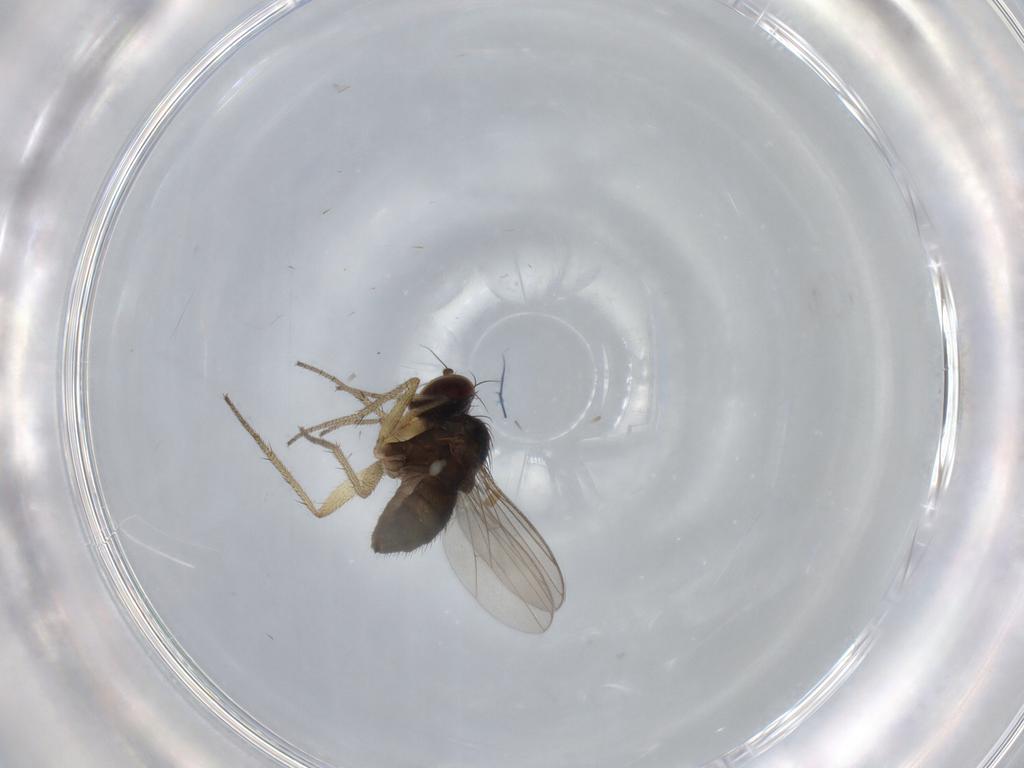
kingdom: Animalia
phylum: Arthropoda
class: Insecta
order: Diptera
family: Dolichopodidae
